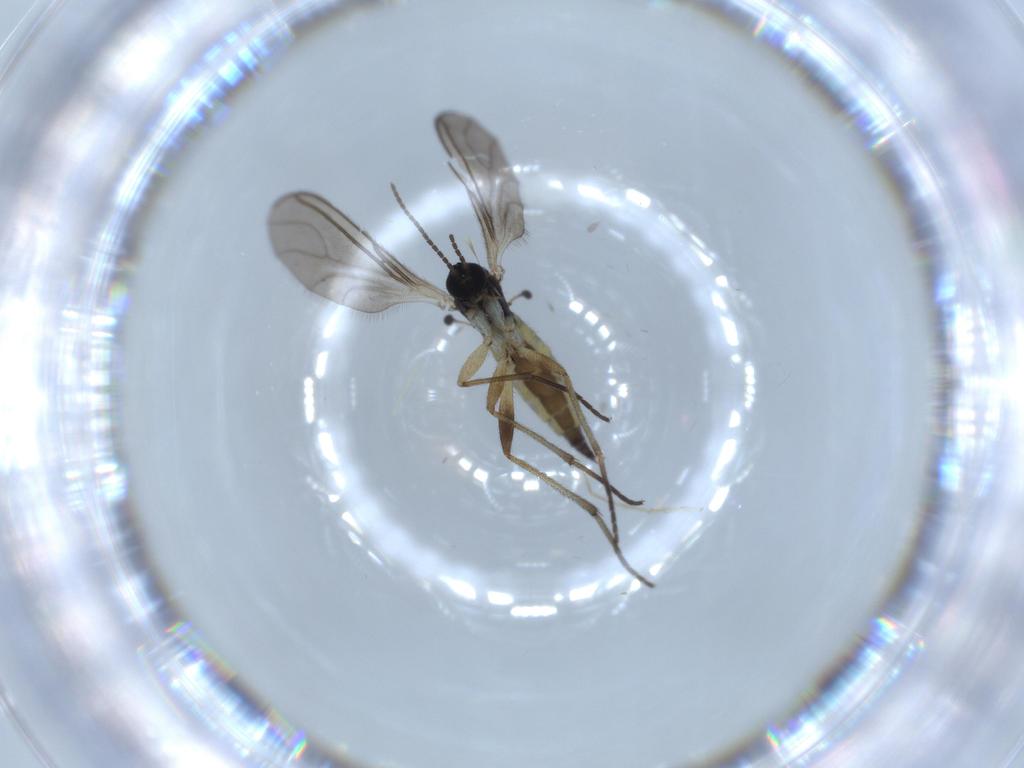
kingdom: Animalia
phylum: Arthropoda
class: Insecta
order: Diptera
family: Sciaridae
